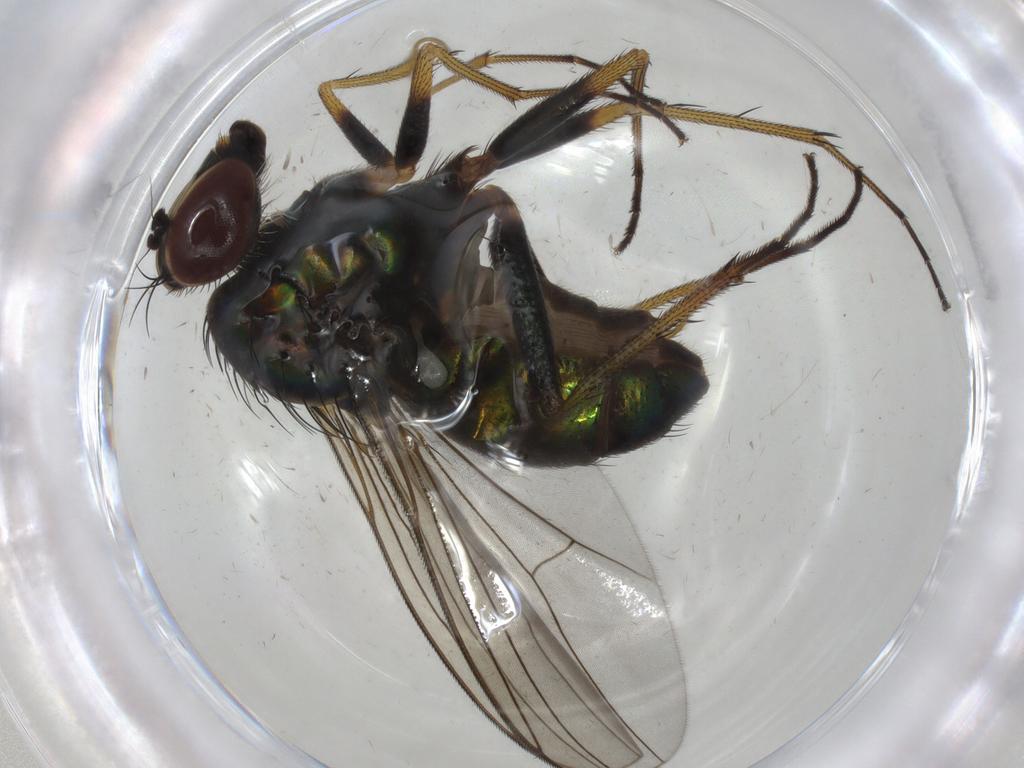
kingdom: Animalia
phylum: Arthropoda
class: Insecta
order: Diptera
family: Dolichopodidae
